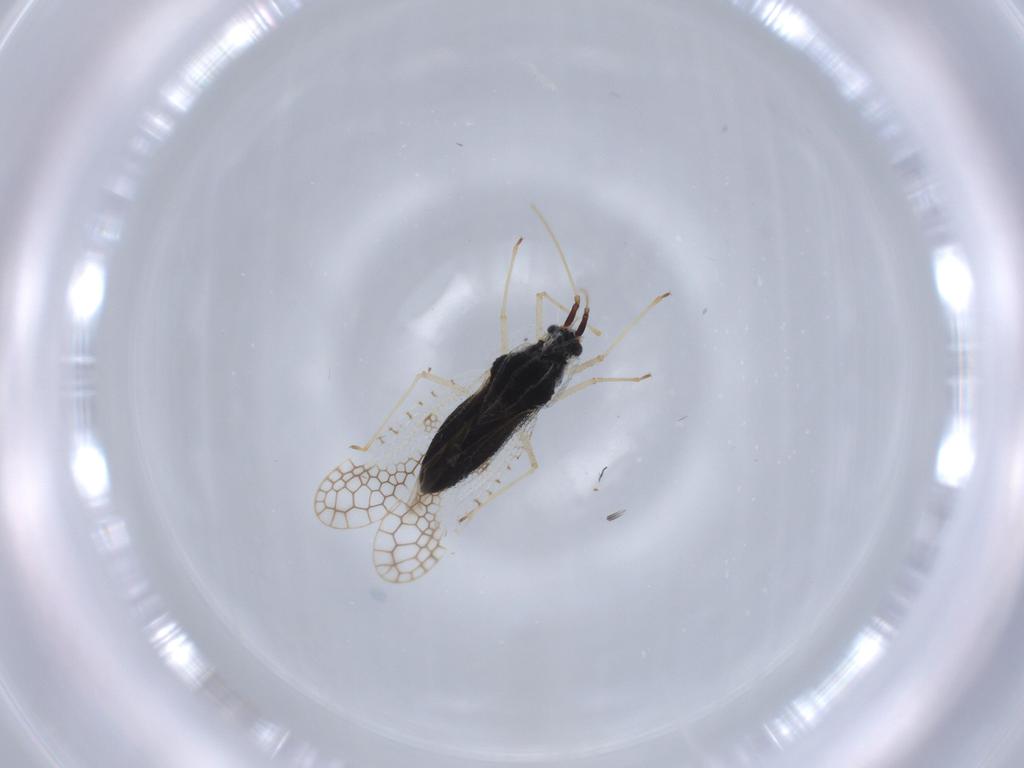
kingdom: Animalia
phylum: Arthropoda
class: Insecta
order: Hemiptera
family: Tingidae
